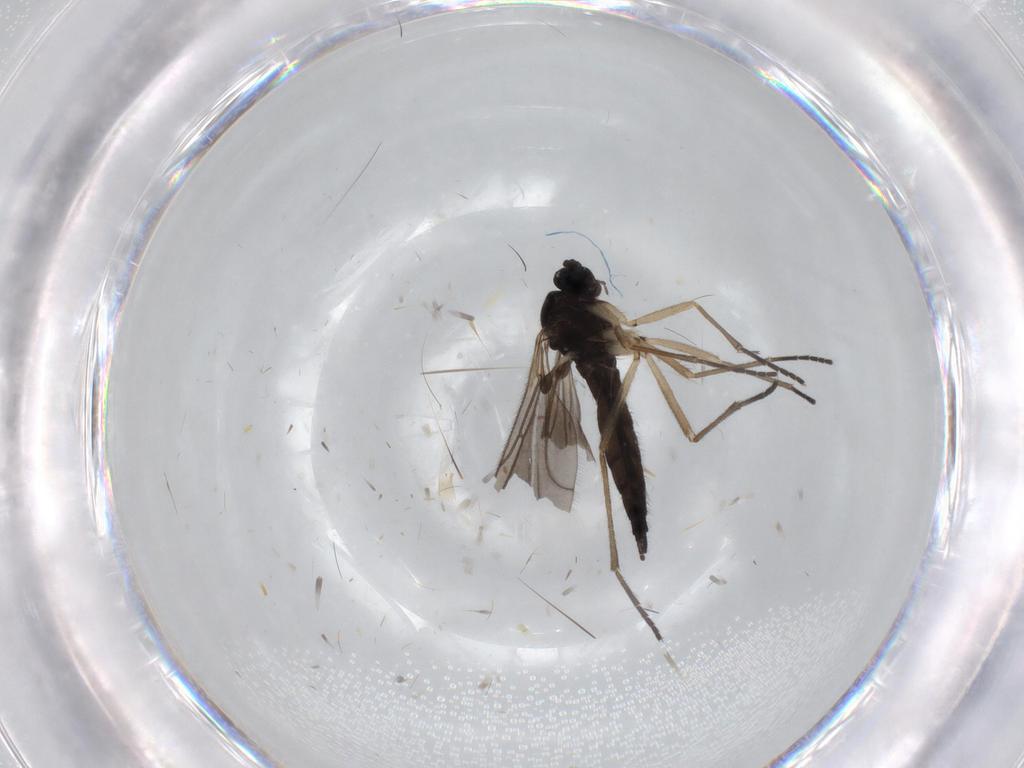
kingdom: Animalia
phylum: Arthropoda
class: Insecta
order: Diptera
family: Sciaridae
